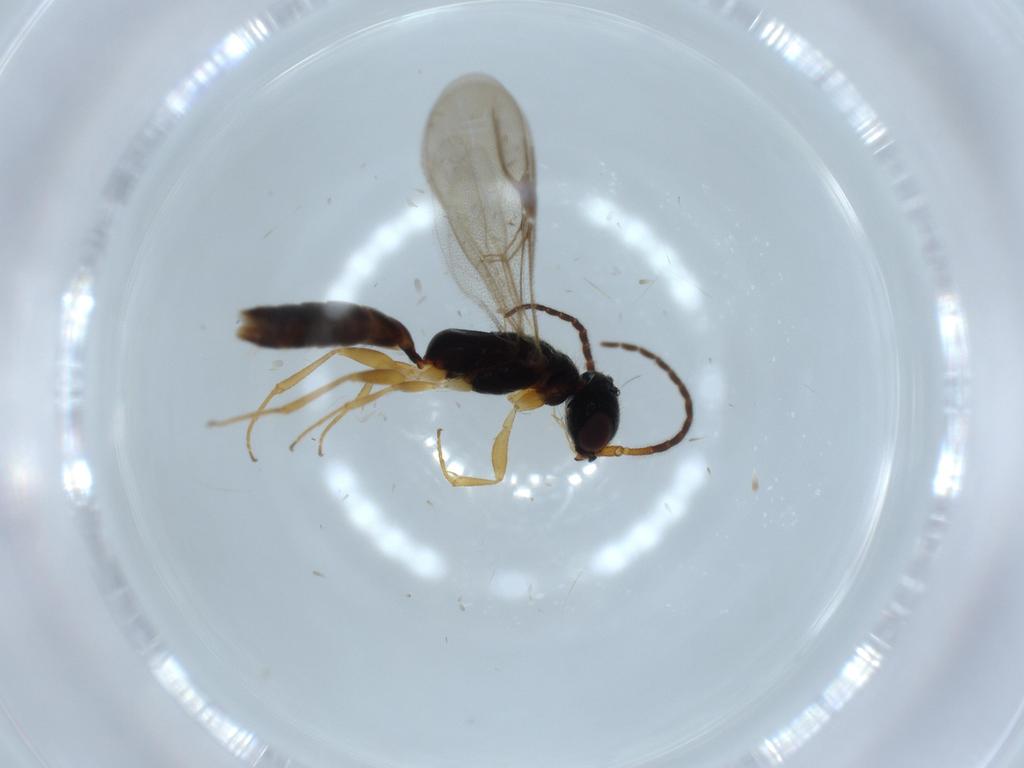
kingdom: Animalia
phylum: Arthropoda
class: Insecta
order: Hymenoptera
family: Bethylidae
